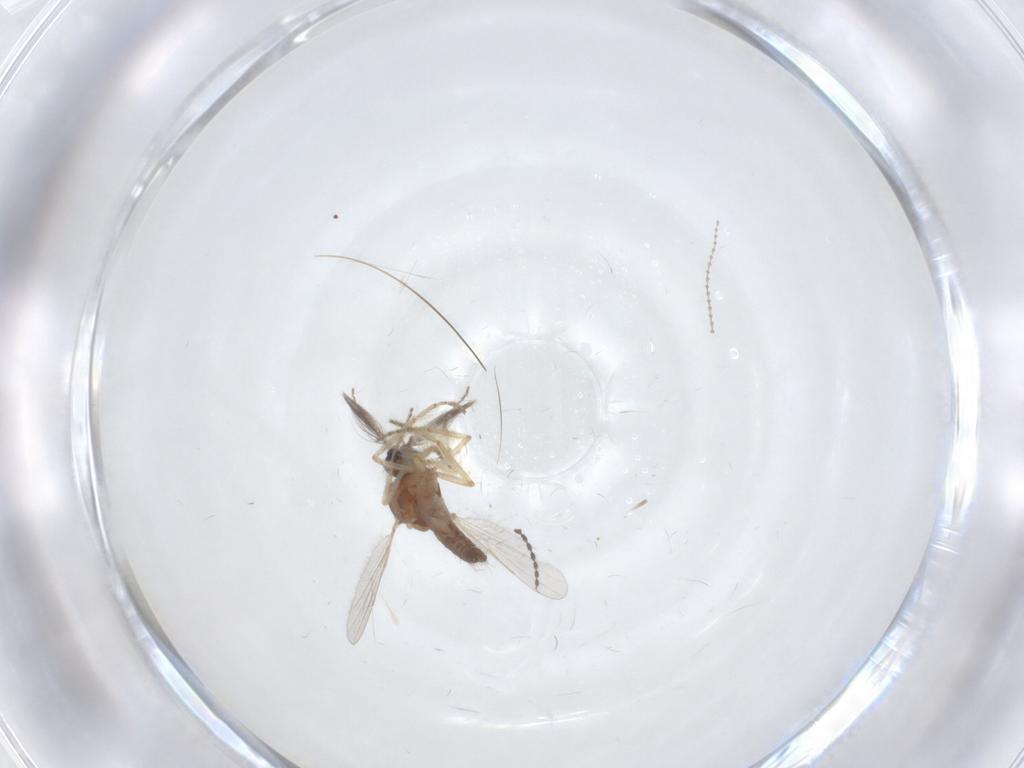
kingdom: Animalia
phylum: Arthropoda
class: Insecta
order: Diptera
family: Ceratopogonidae
